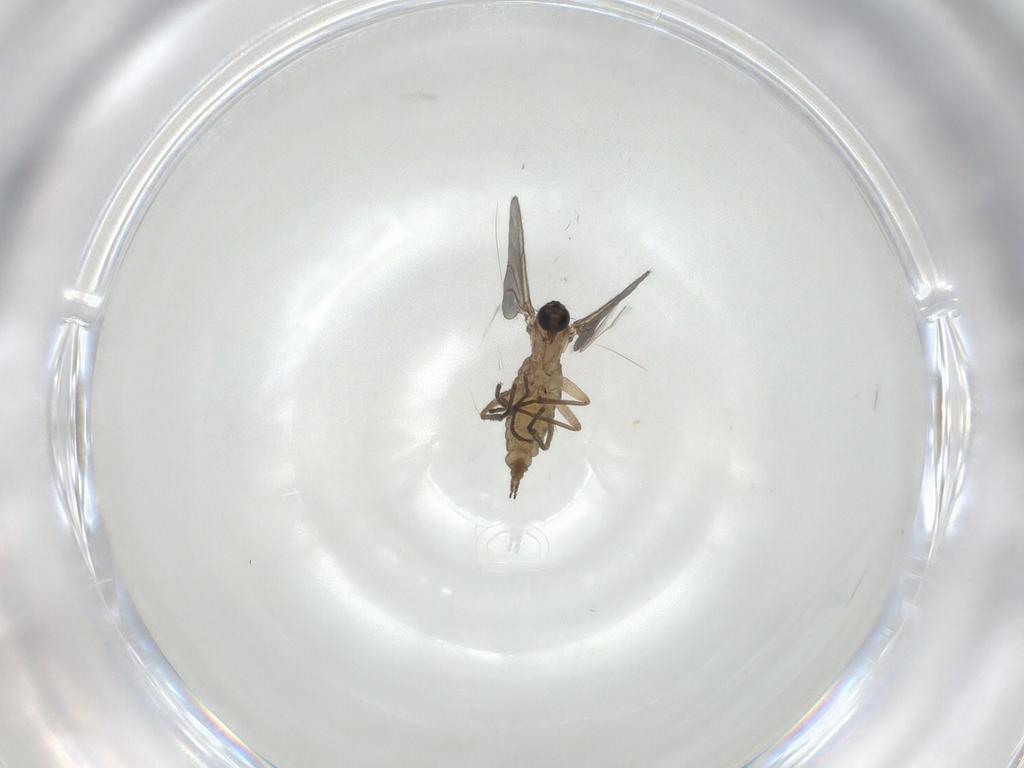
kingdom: Animalia
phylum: Arthropoda
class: Insecta
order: Diptera
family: Sciaridae
